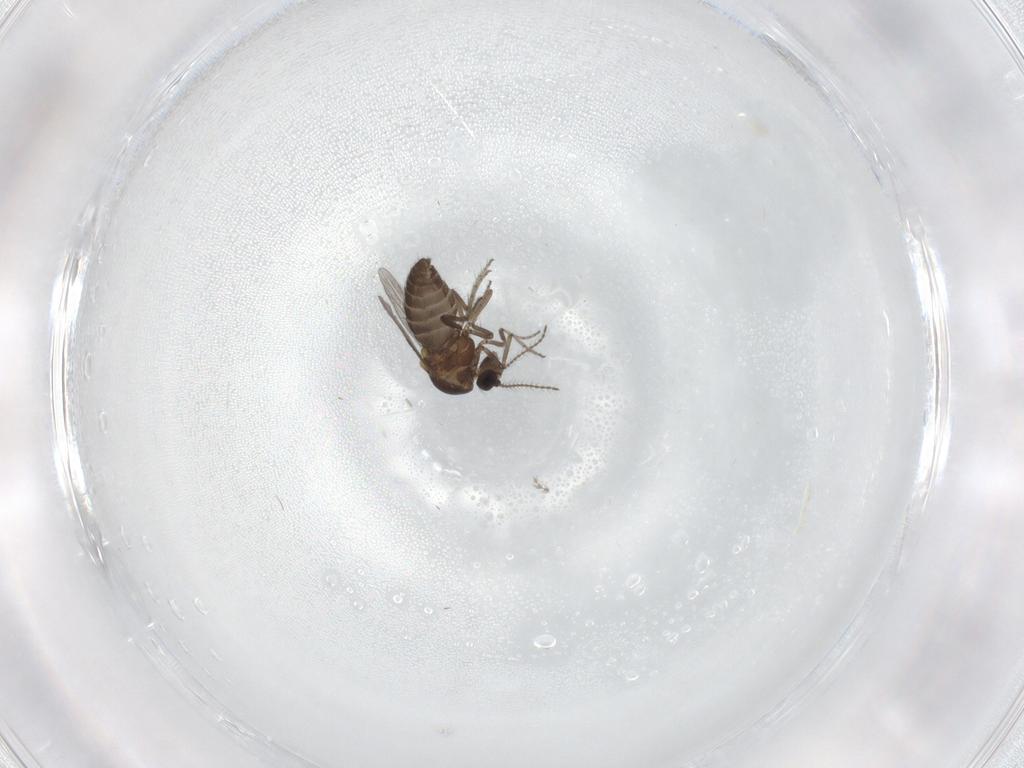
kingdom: Animalia
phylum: Arthropoda
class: Insecta
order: Diptera
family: Ceratopogonidae
